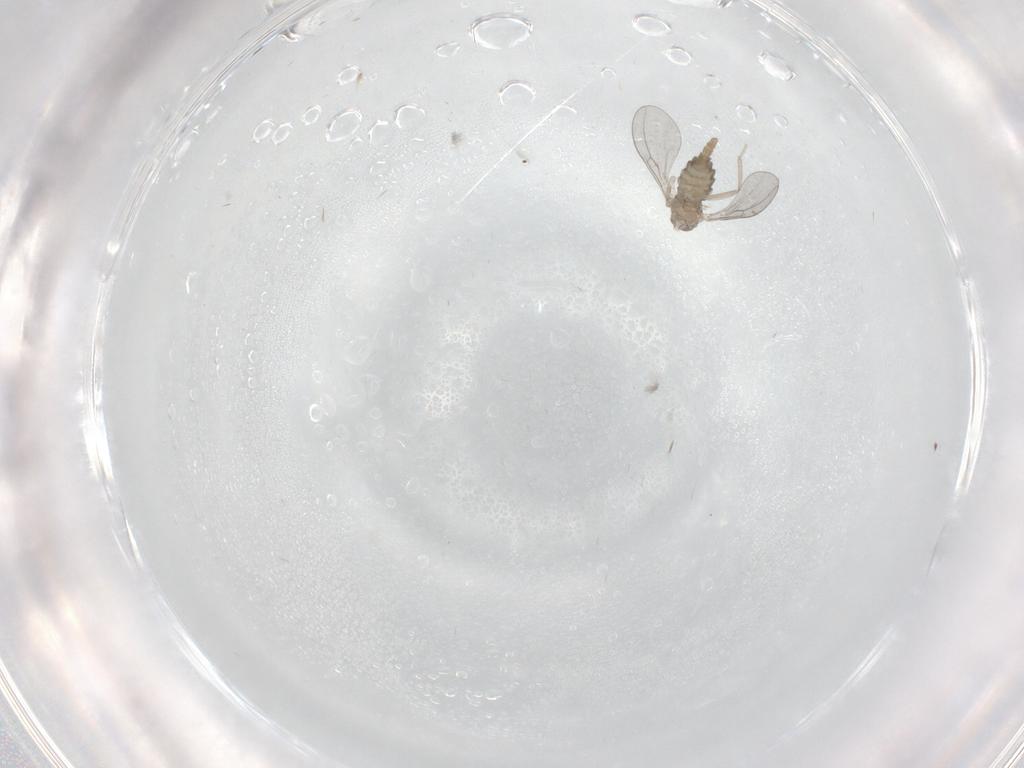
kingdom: Animalia
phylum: Arthropoda
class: Insecta
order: Diptera
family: Cecidomyiidae
